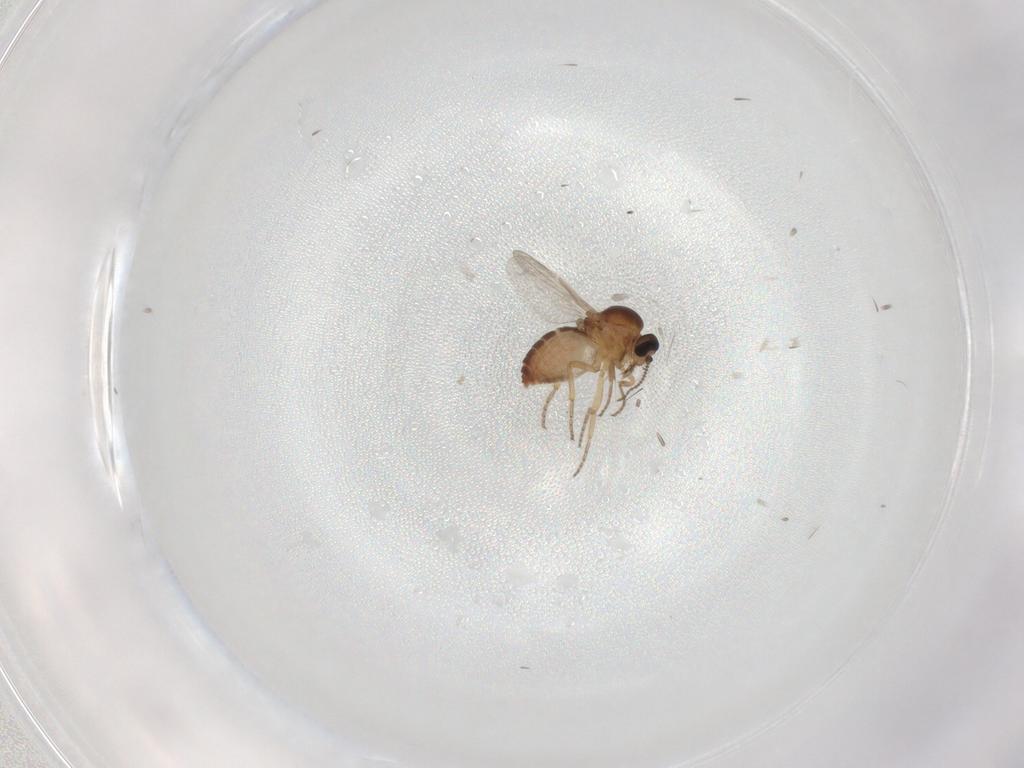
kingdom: Animalia
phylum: Arthropoda
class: Insecta
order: Diptera
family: Ceratopogonidae
